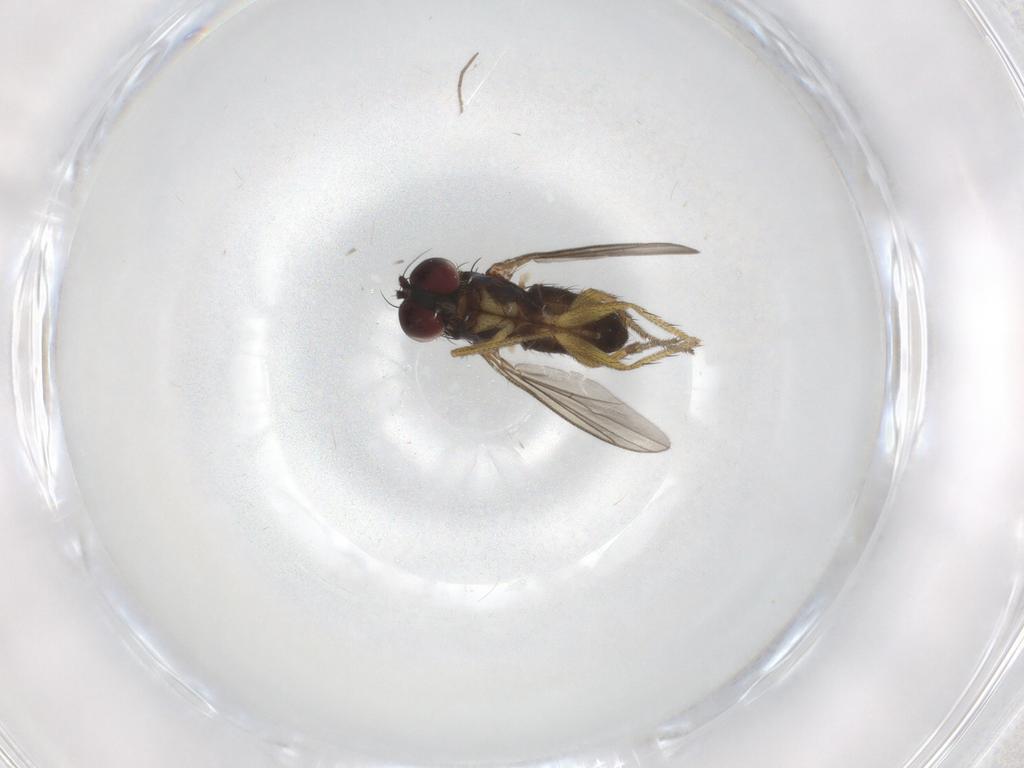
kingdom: Animalia
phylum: Arthropoda
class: Insecta
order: Diptera
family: Dolichopodidae
